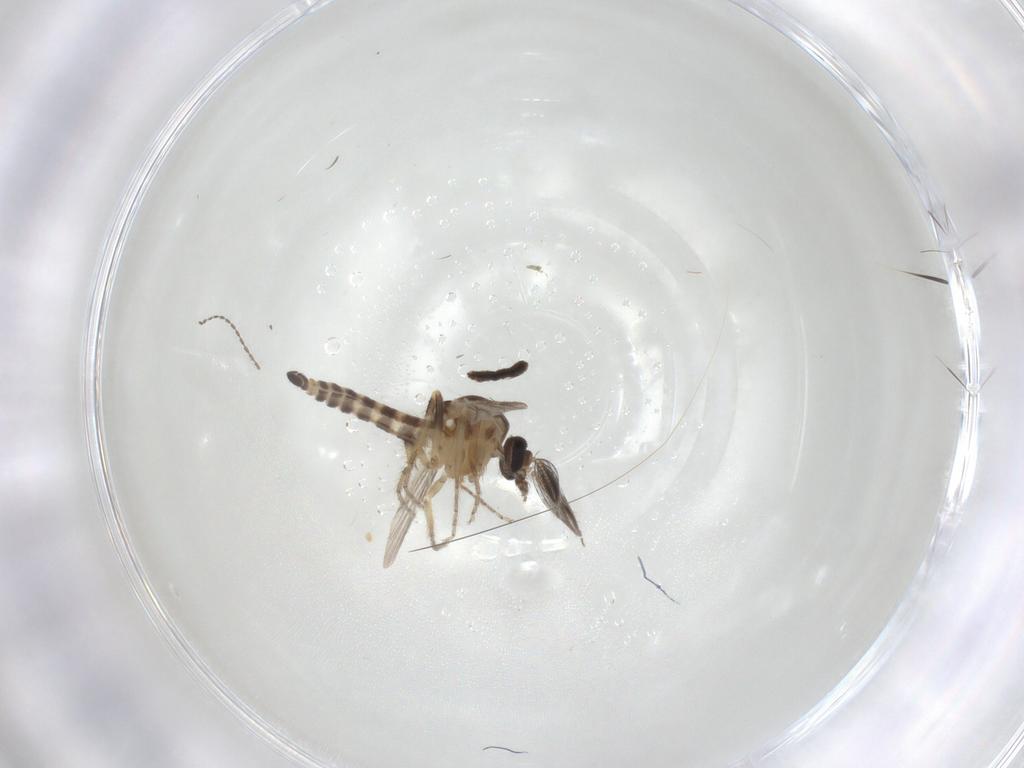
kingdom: Animalia
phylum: Arthropoda
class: Insecta
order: Diptera
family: Ceratopogonidae
